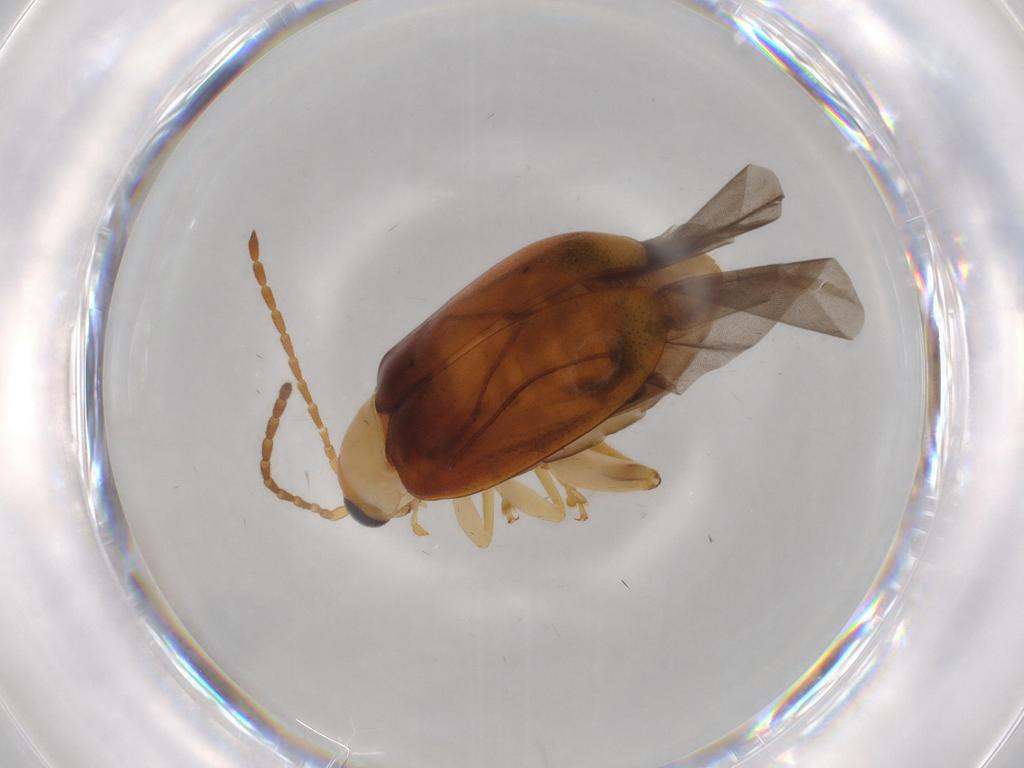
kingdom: Animalia
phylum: Arthropoda
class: Insecta
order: Coleoptera
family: Chrysomelidae
